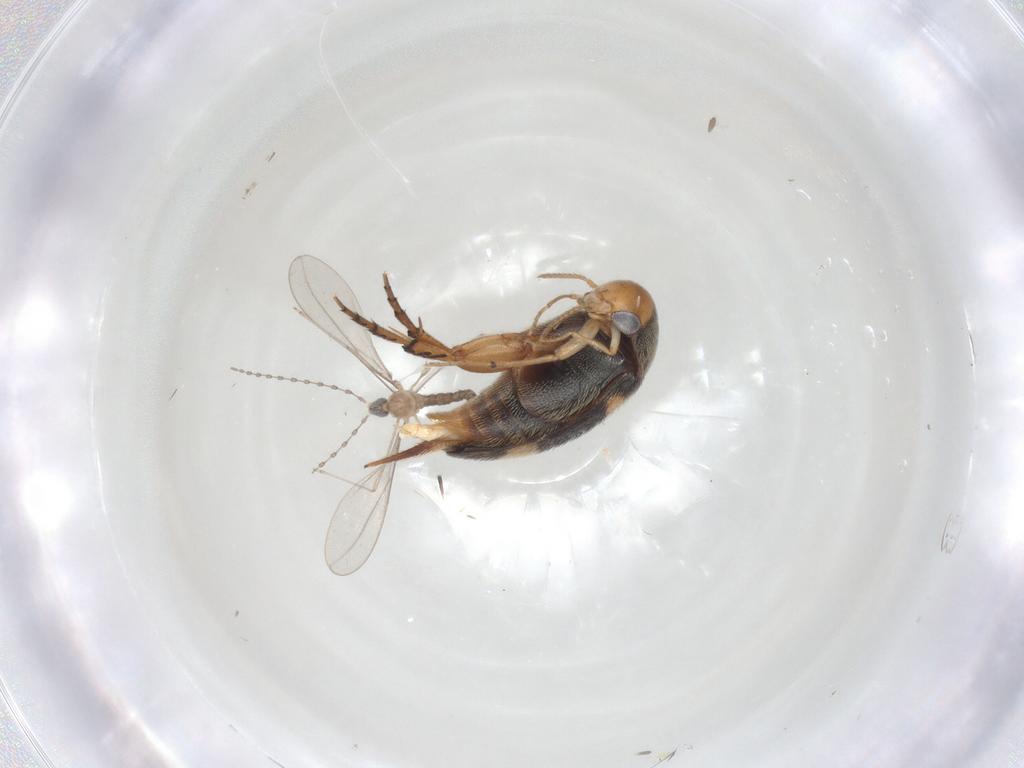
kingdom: Animalia
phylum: Arthropoda
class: Insecta
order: Coleoptera
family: Mordellidae
